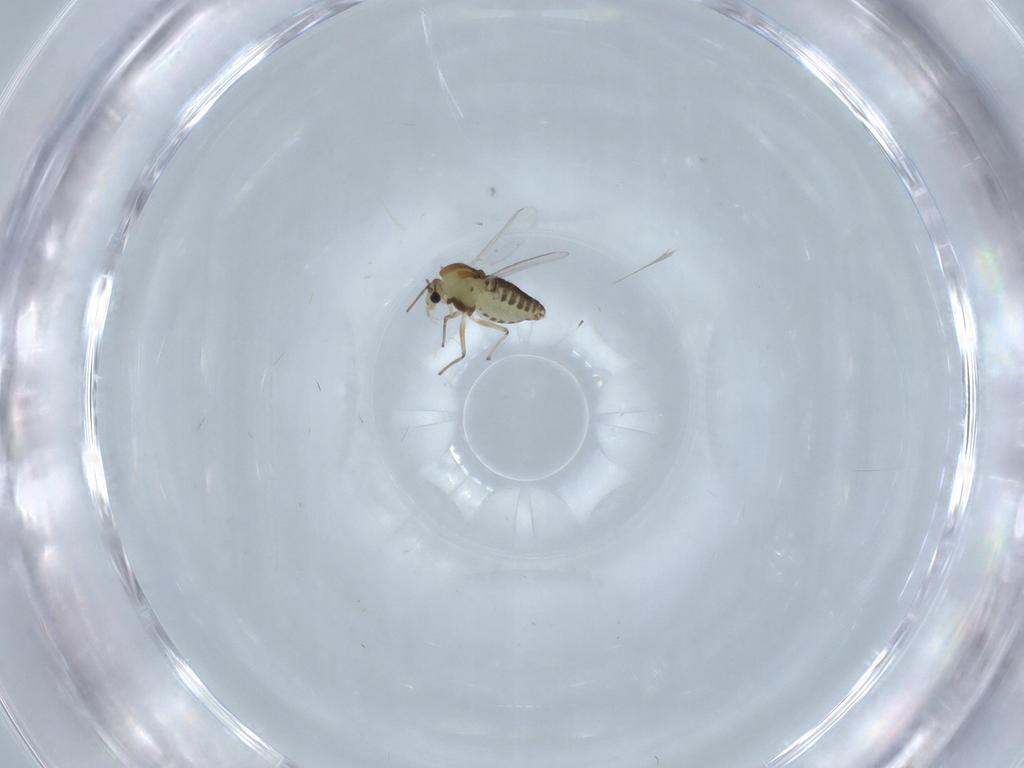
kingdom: Animalia
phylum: Arthropoda
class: Insecta
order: Diptera
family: Chironomidae
